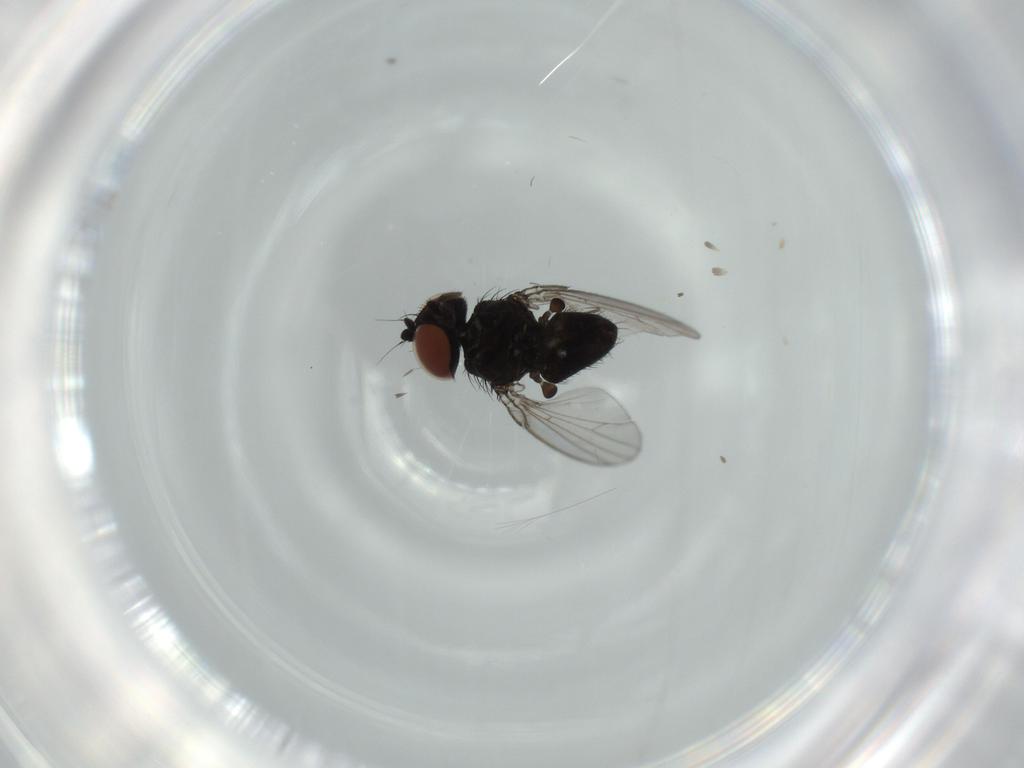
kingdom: Animalia
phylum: Arthropoda
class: Insecta
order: Diptera
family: Milichiidae
